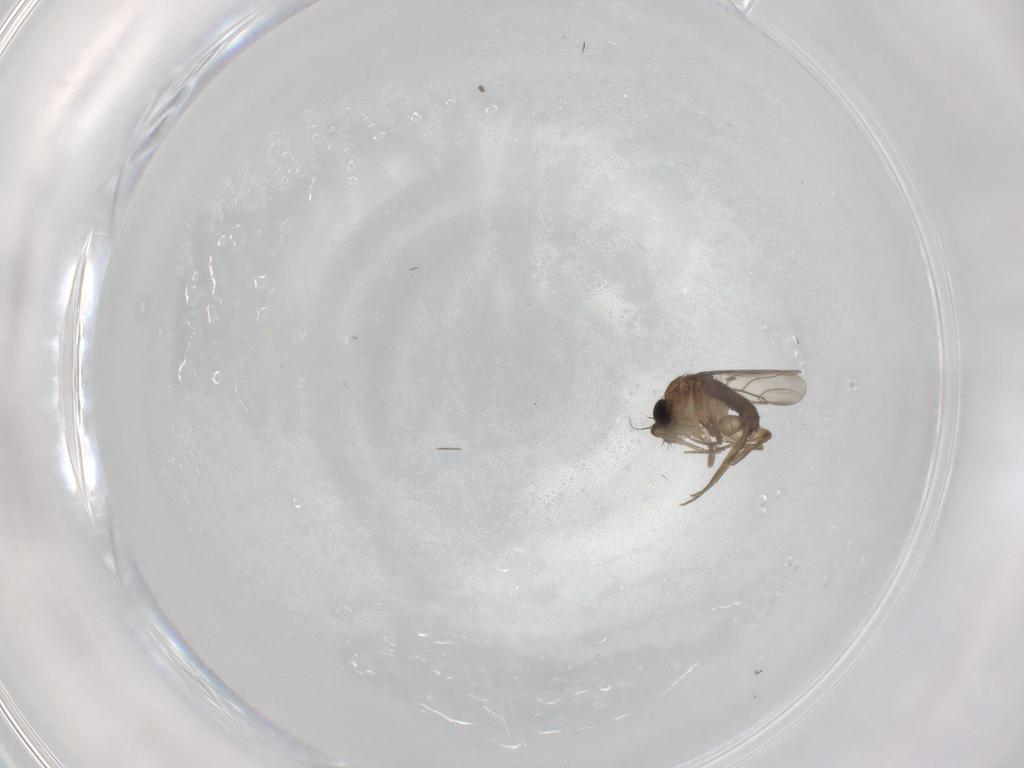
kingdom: Animalia
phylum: Arthropoda
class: Insecta
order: Diptera
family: Phoridae
